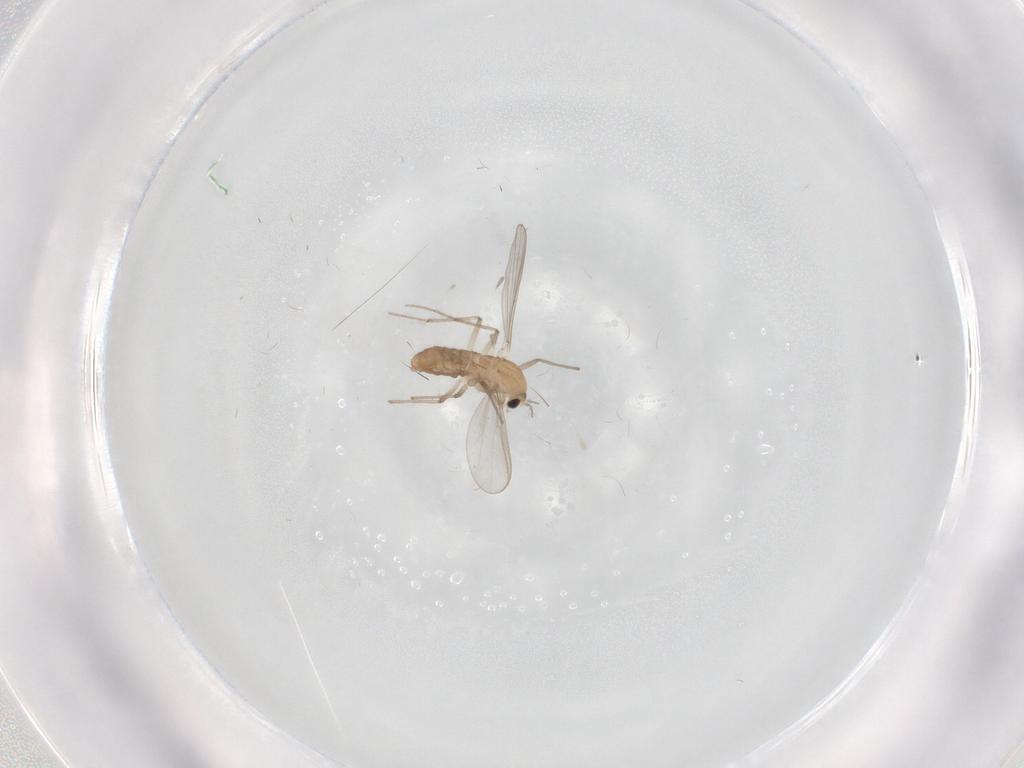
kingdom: Animalia
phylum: Arthropoda
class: Insecta
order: Diptera
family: Chironomidae
